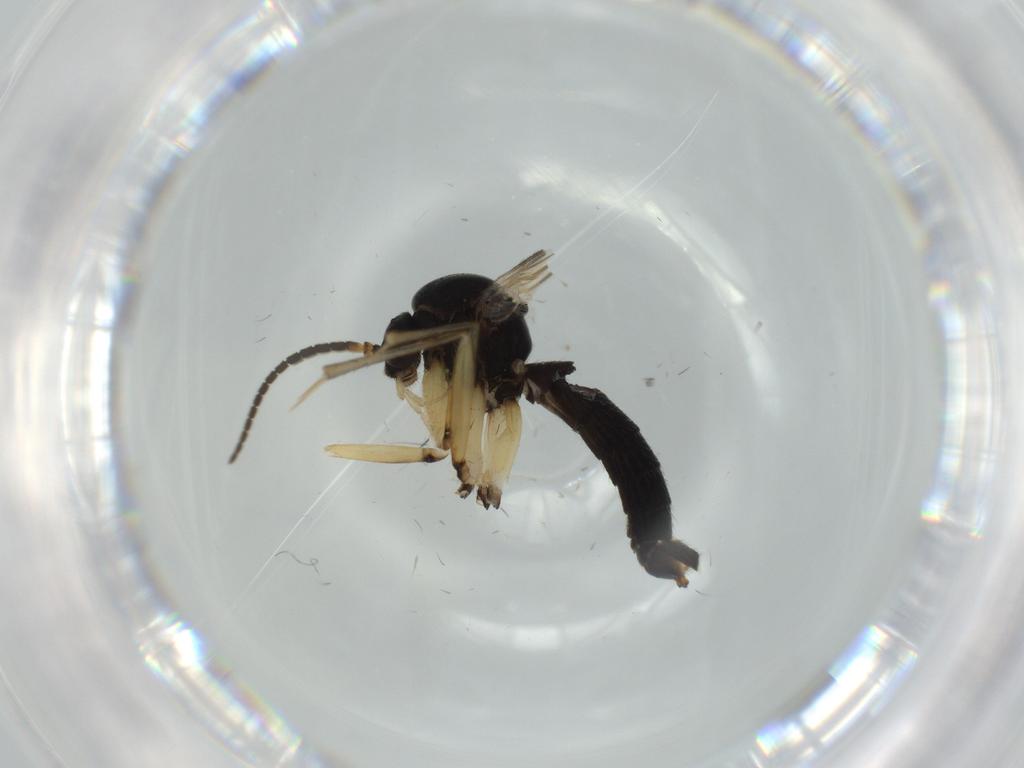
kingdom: Animalia
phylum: Arthropoda
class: Insecta
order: Diptera
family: Mycetophilidae
